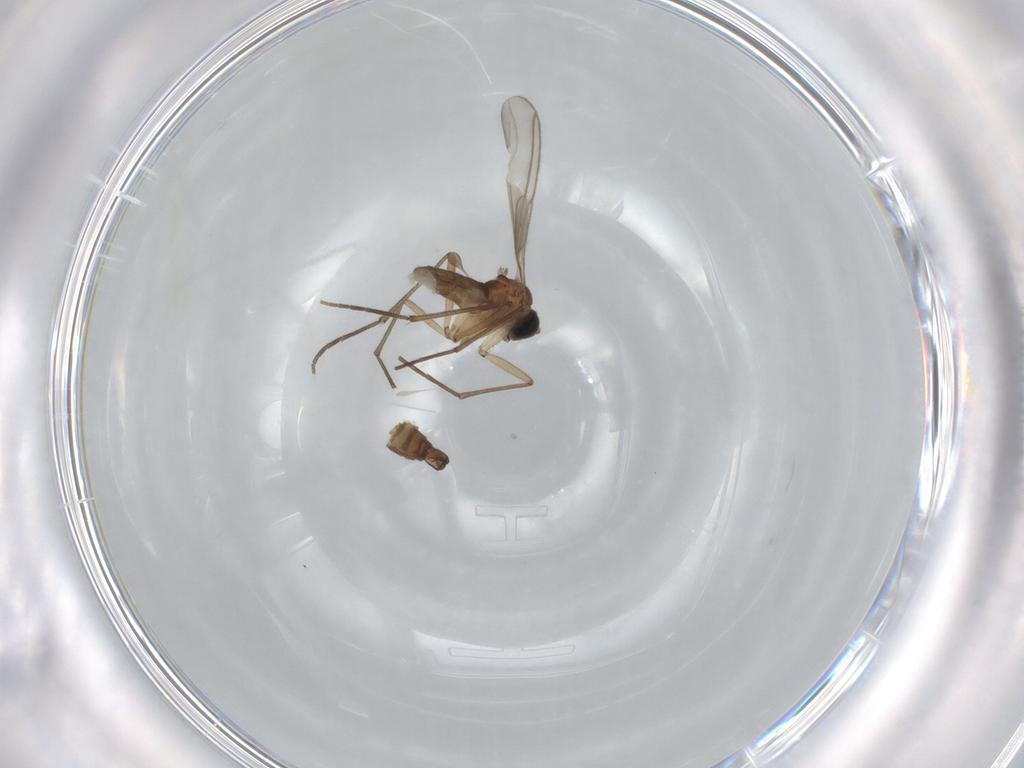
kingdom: Animalia
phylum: Arthropoda
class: Insecta
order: Diptera
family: Sciaridae
